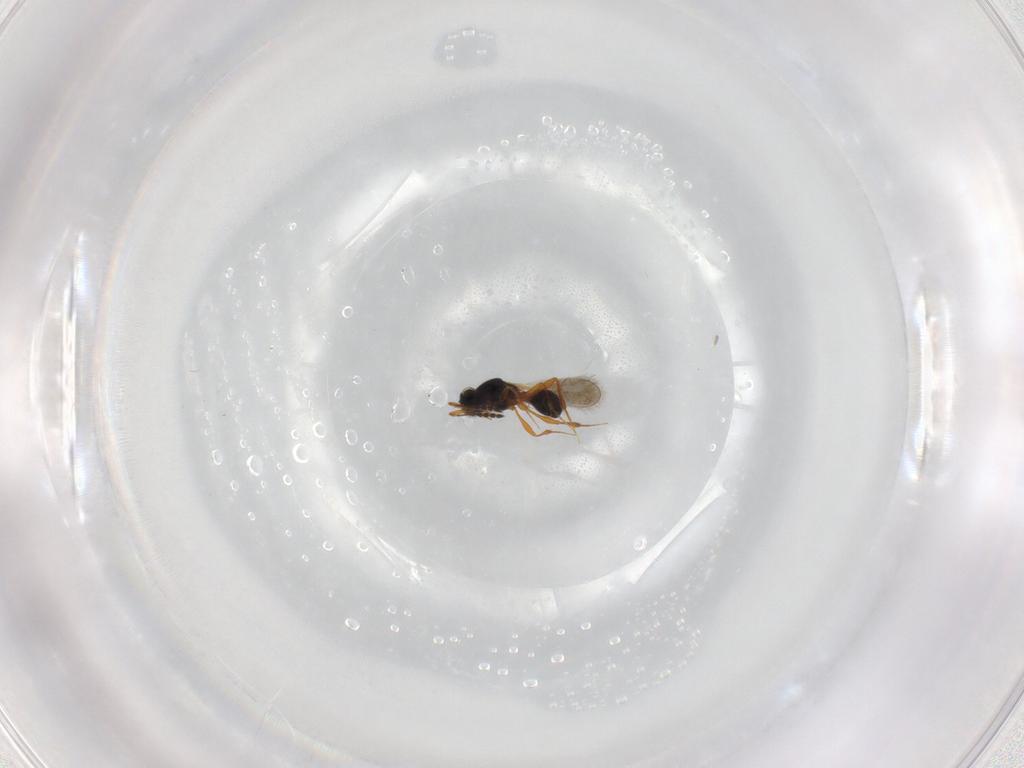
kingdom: Animalia
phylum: Arthropoda
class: Insecta
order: Hymenoptera
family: Platygastridae
